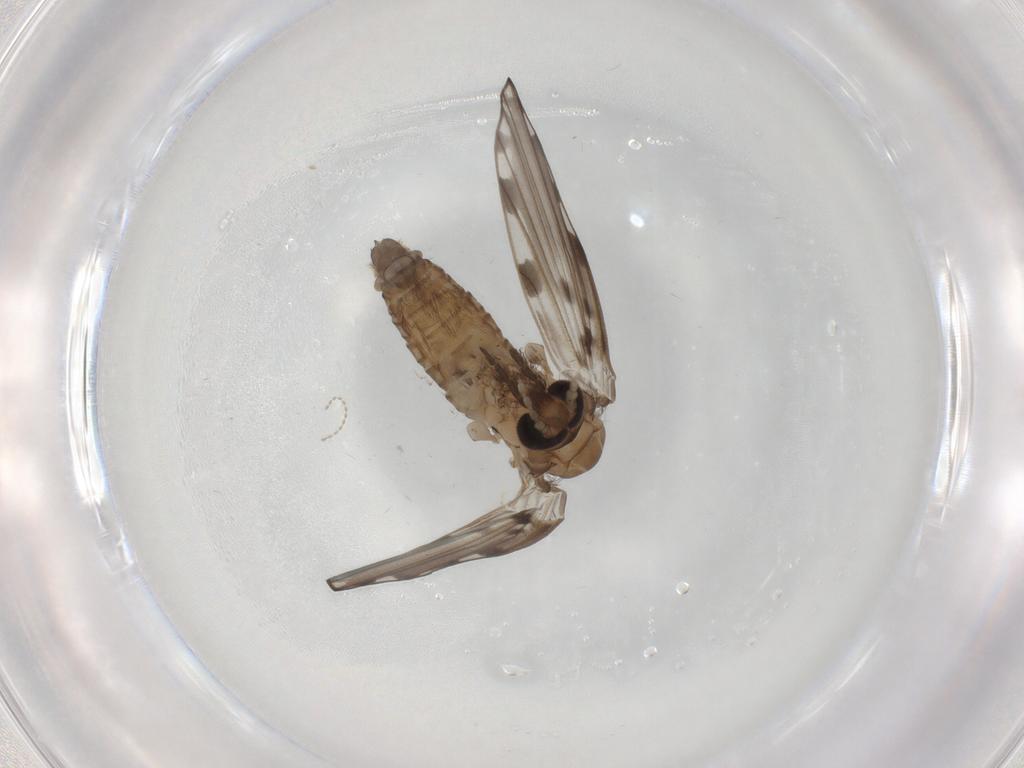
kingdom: Animalia
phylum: Arthropoda
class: Insecta
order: Diptera
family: Psychodidae
